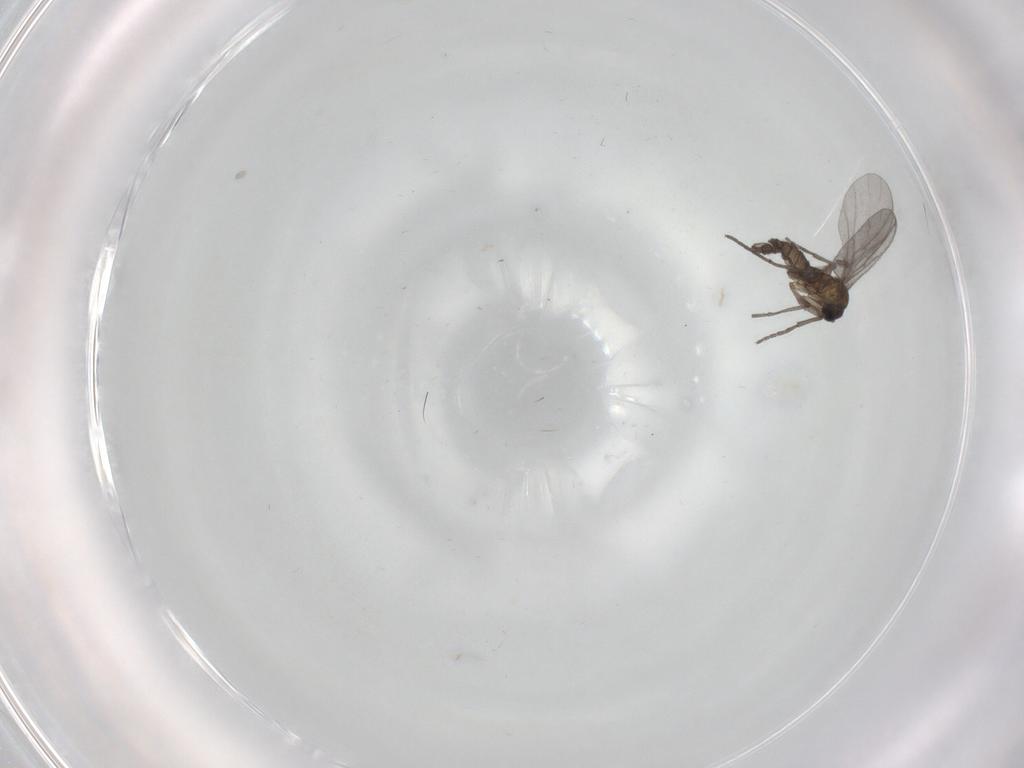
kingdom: Animalia
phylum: Arthropoda
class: Insecta
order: Diptera
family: Sciaridae
